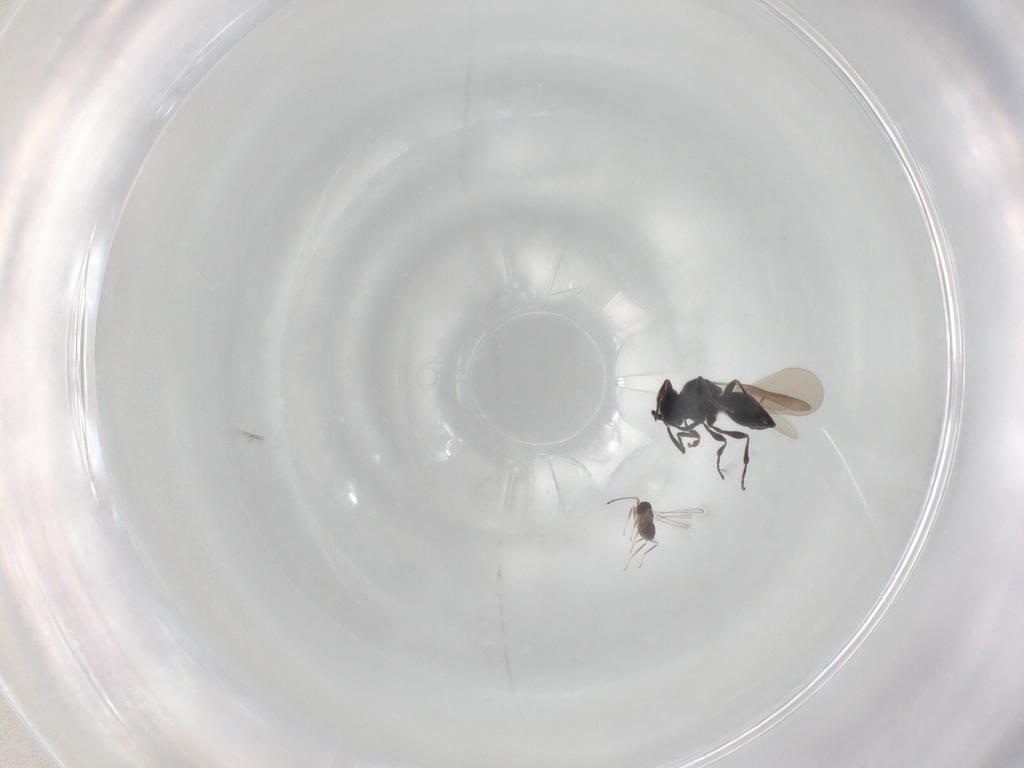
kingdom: Animalia
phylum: Arthropoda
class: Insecta
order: Hymenoptera
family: Platygastridae
